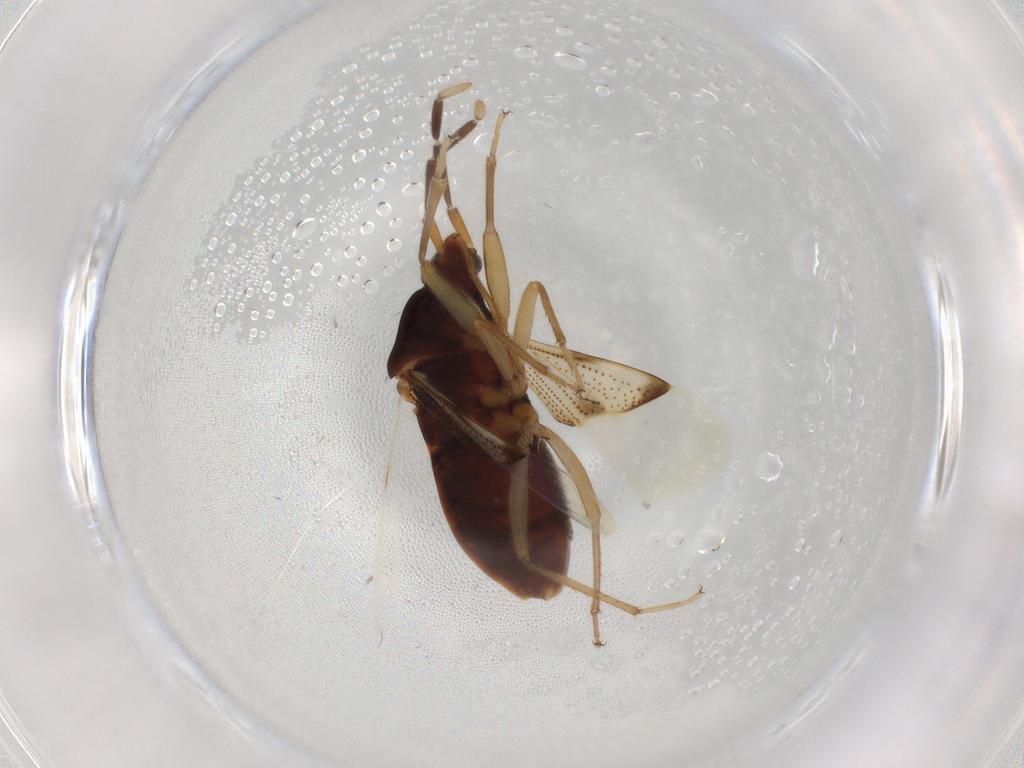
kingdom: Animalia
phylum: Arthropoda
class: Insecta
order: Hemiptera
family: Rhyparochromidae
